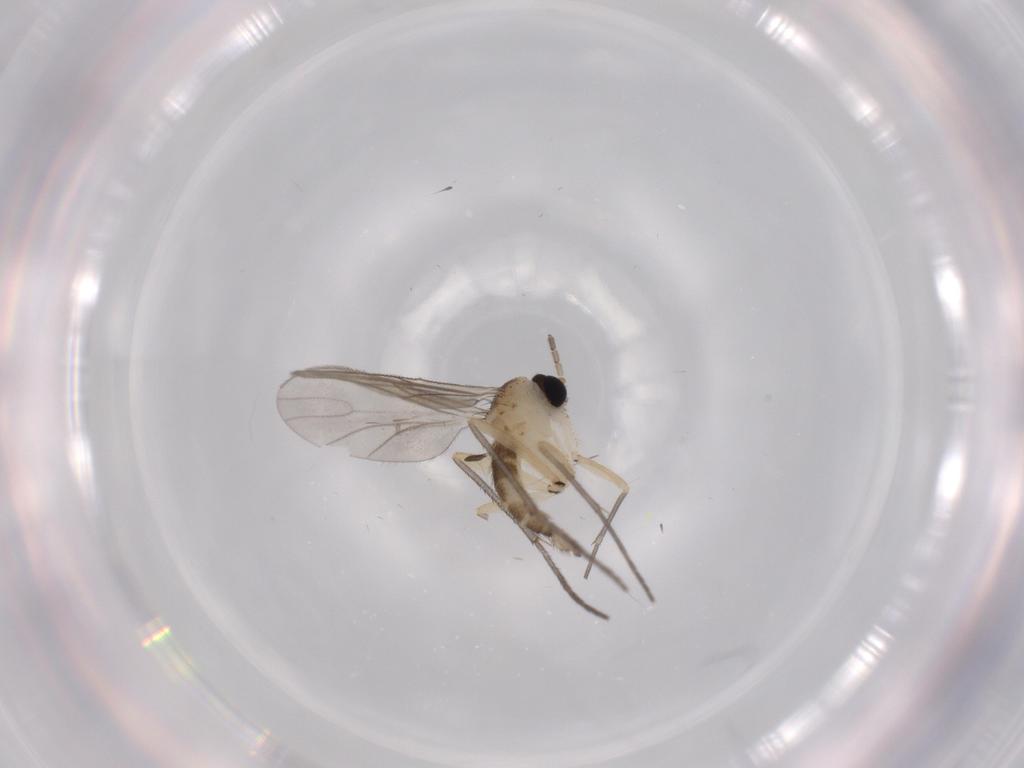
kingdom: Animalia
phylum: Arthropoda
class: Insecta
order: Diptera
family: Sciaridae
